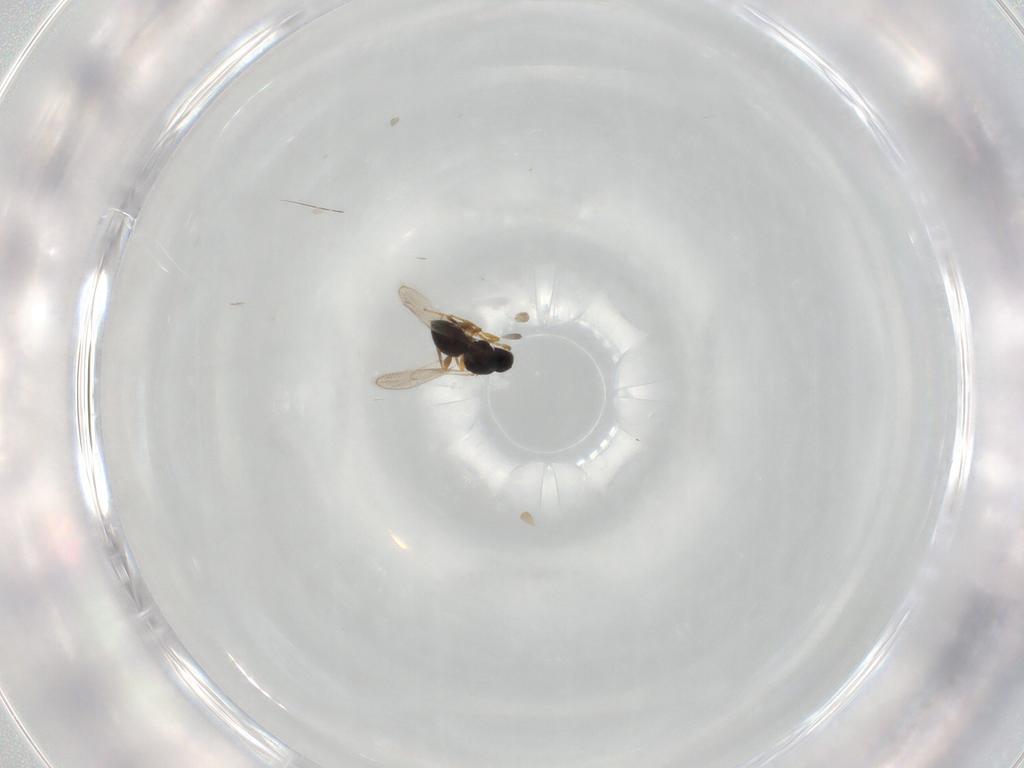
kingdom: Animalia
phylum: Arthropoda
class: Insecta
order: Hymenoptera
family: Platygastridae
